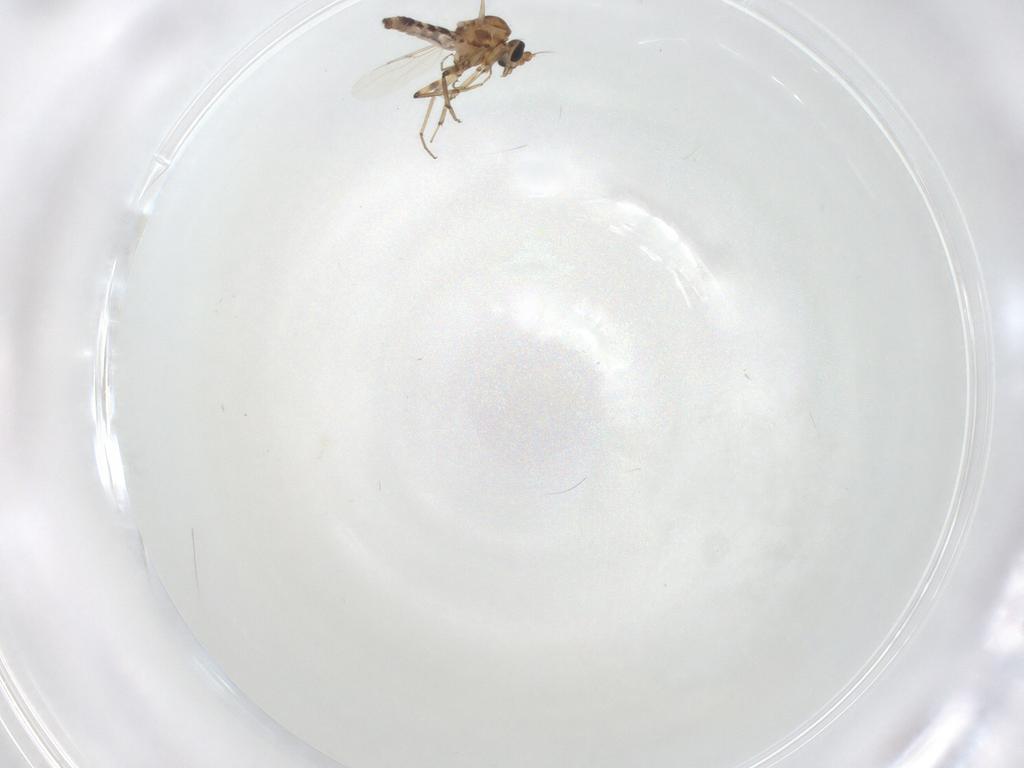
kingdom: Animalia
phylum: Arthropoda
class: Insecta
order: Diptera
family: Ceratopogonidae
